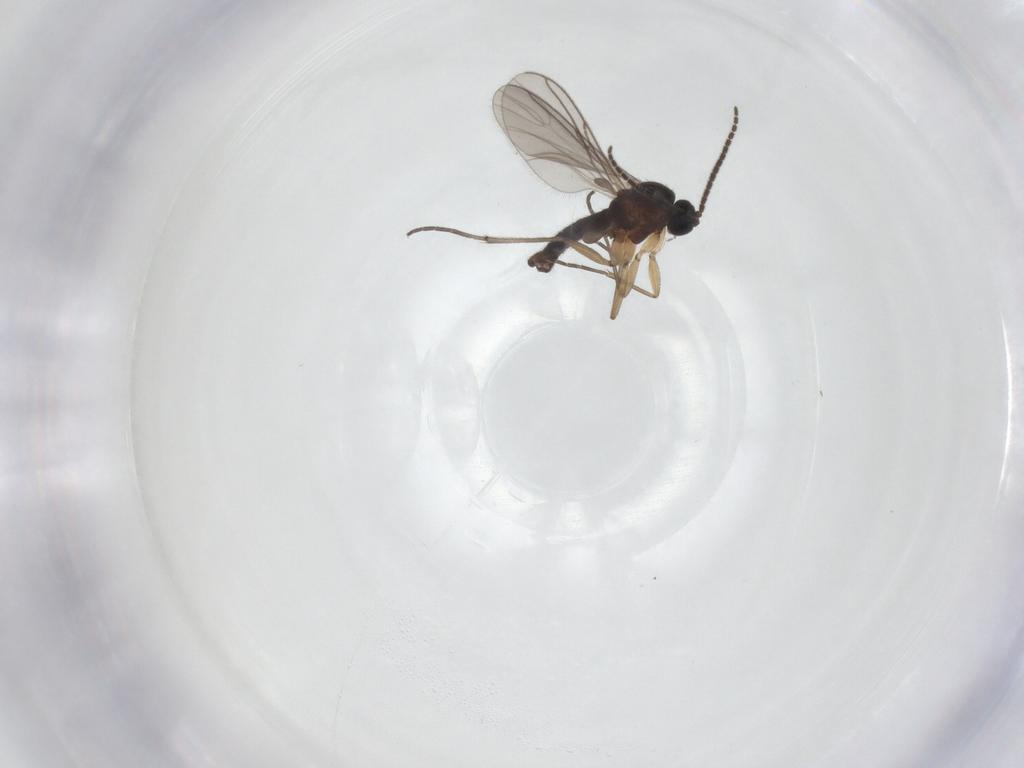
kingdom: Animalia
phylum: Arthropoda
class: Insecta
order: Diptera
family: Sciaridae
